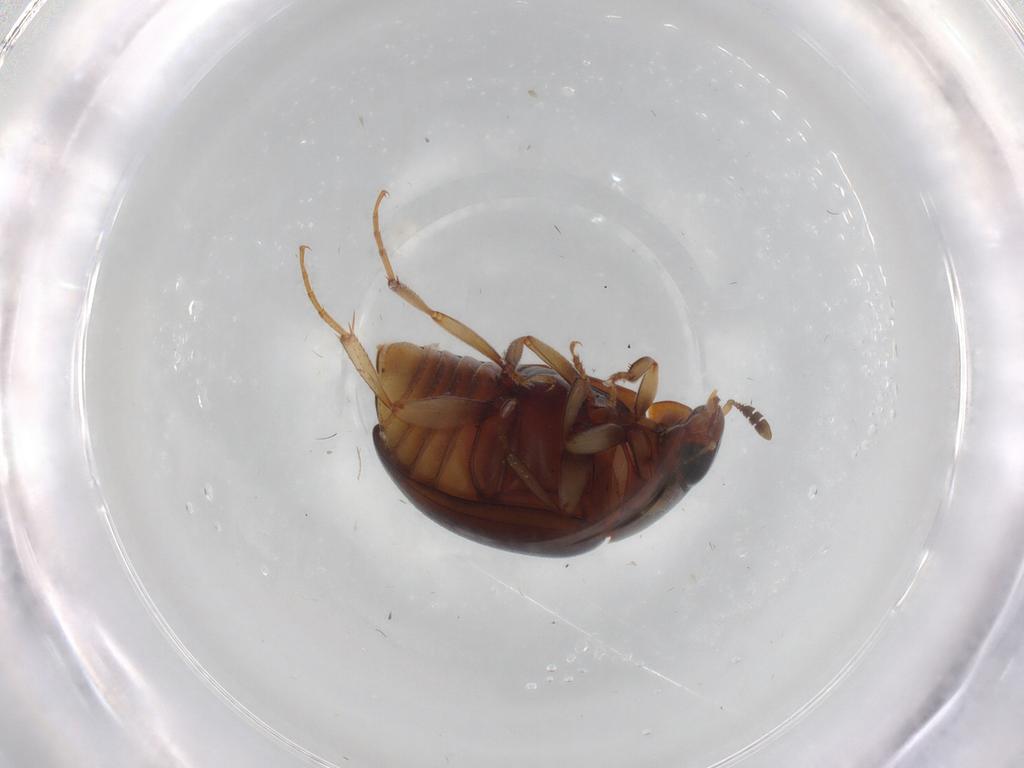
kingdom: Animalia
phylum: Arthropoda
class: Insecta
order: Coleoptera
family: Nitidulidae
